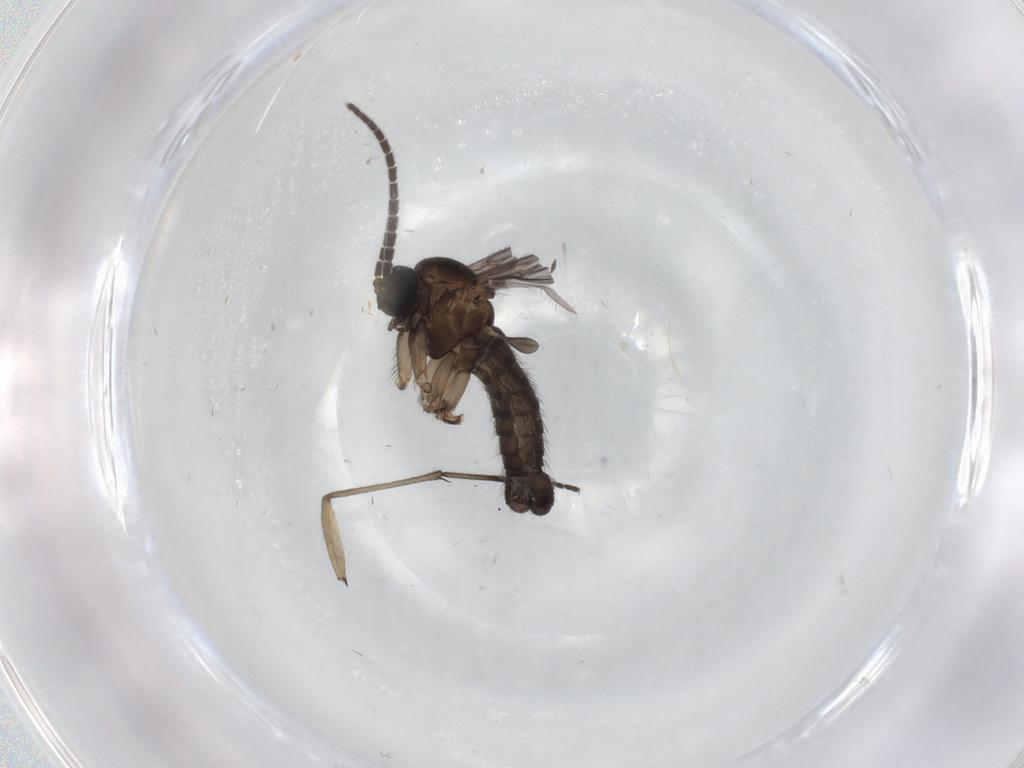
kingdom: Animalia
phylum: Arthropoda
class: Insecta
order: Diptera
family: Sciaridae
